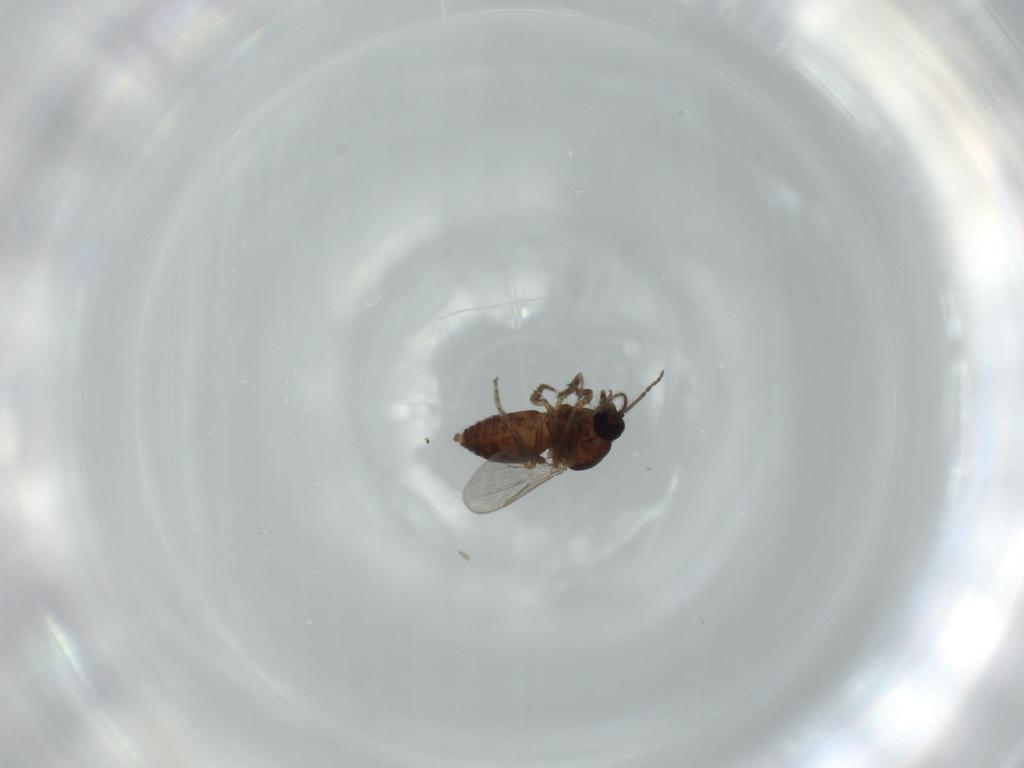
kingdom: Animalia
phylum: Arthropoda
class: Insecta
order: Diptera
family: Ceratopogonidae
